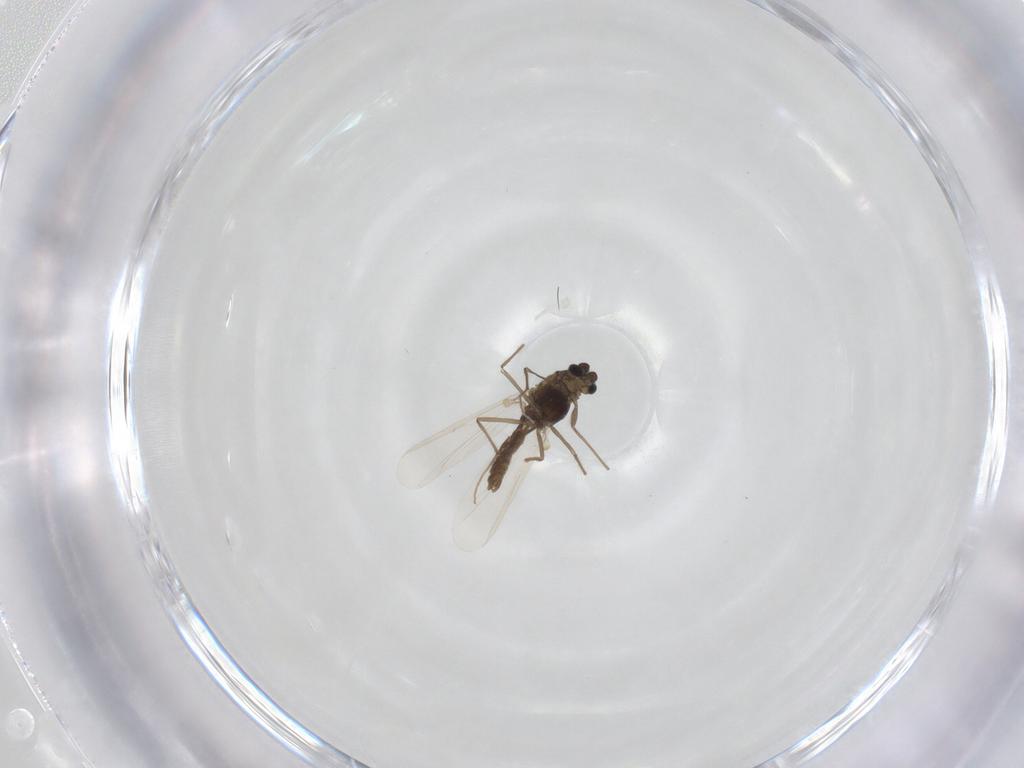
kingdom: Animalia
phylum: Arthropoda
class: Insecta
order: Diptera
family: Chironomidae
